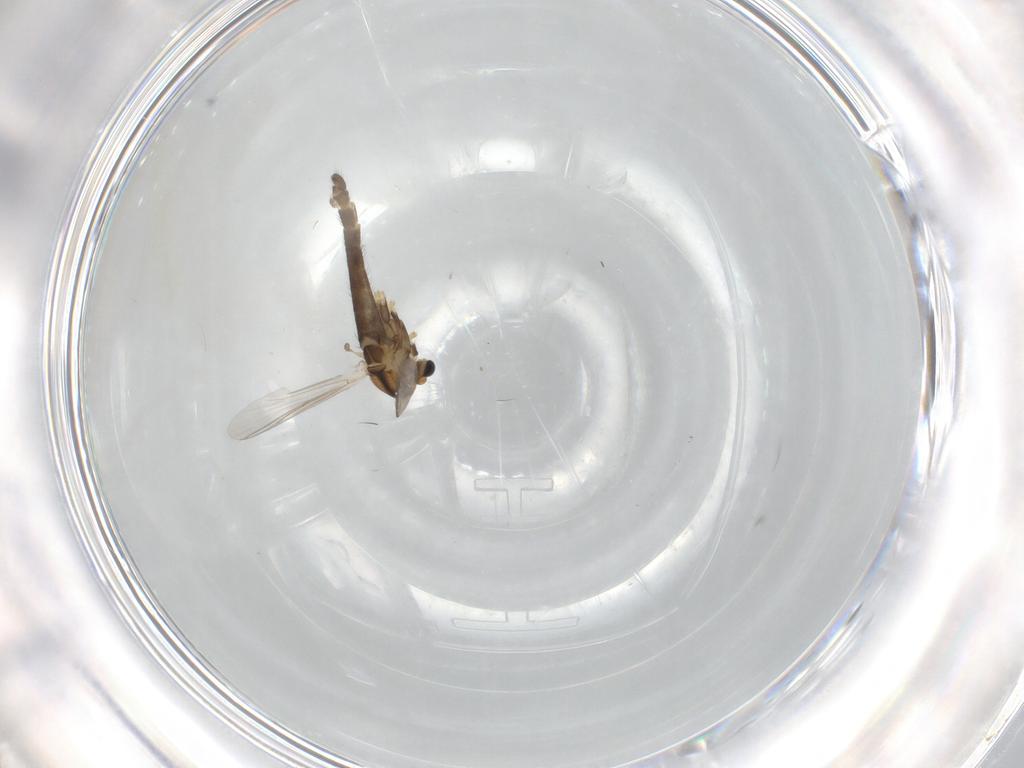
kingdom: Animalia
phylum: Arthropoda
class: Insecta
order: Diptera
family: Chironomidae
